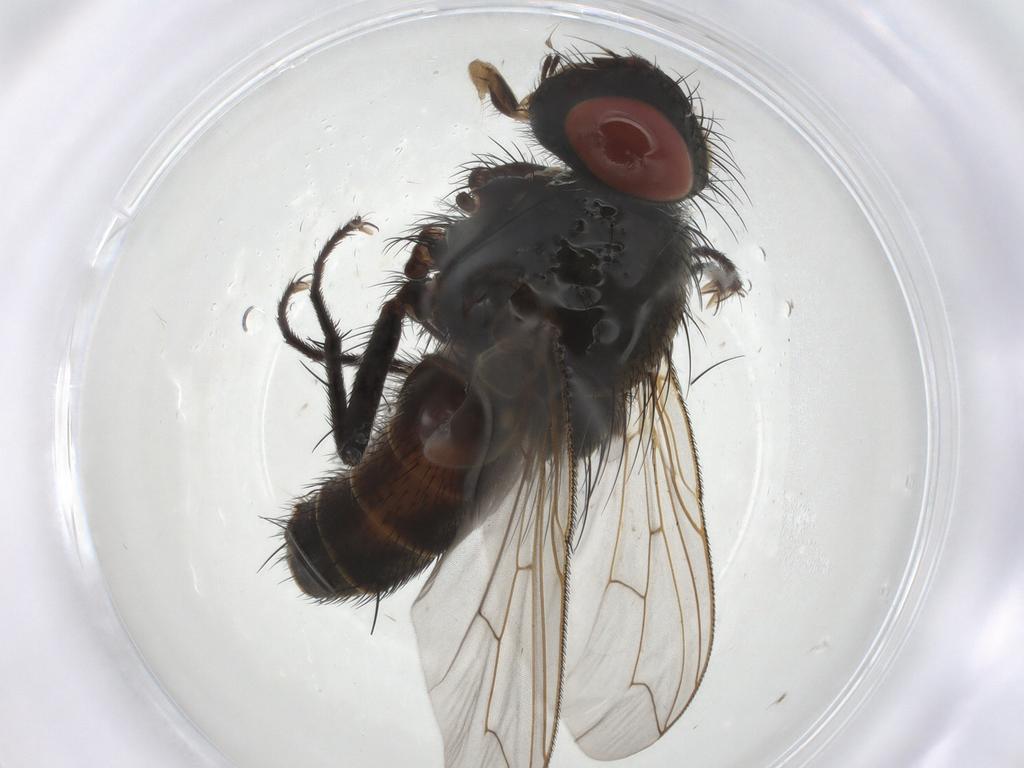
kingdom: Animalia
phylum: Arthropoda
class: Insecta
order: Diptera
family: Sarcophagidae
